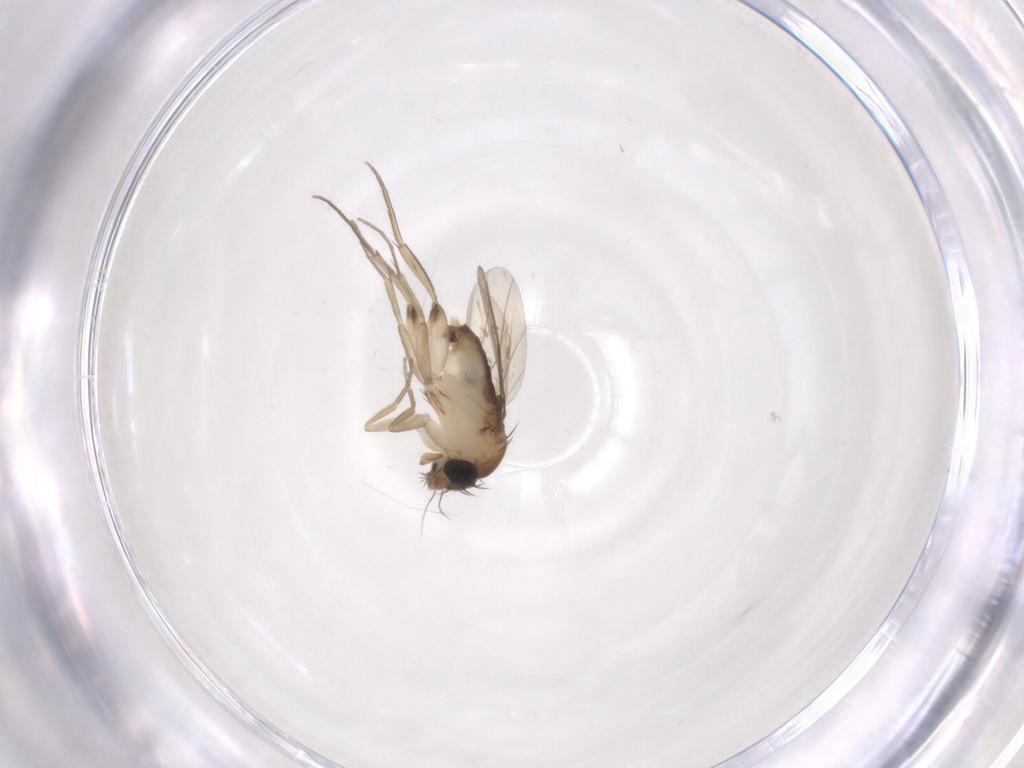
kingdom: Animalia
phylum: Arthropoda
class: Insecta
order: Diptera
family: Phoridae
